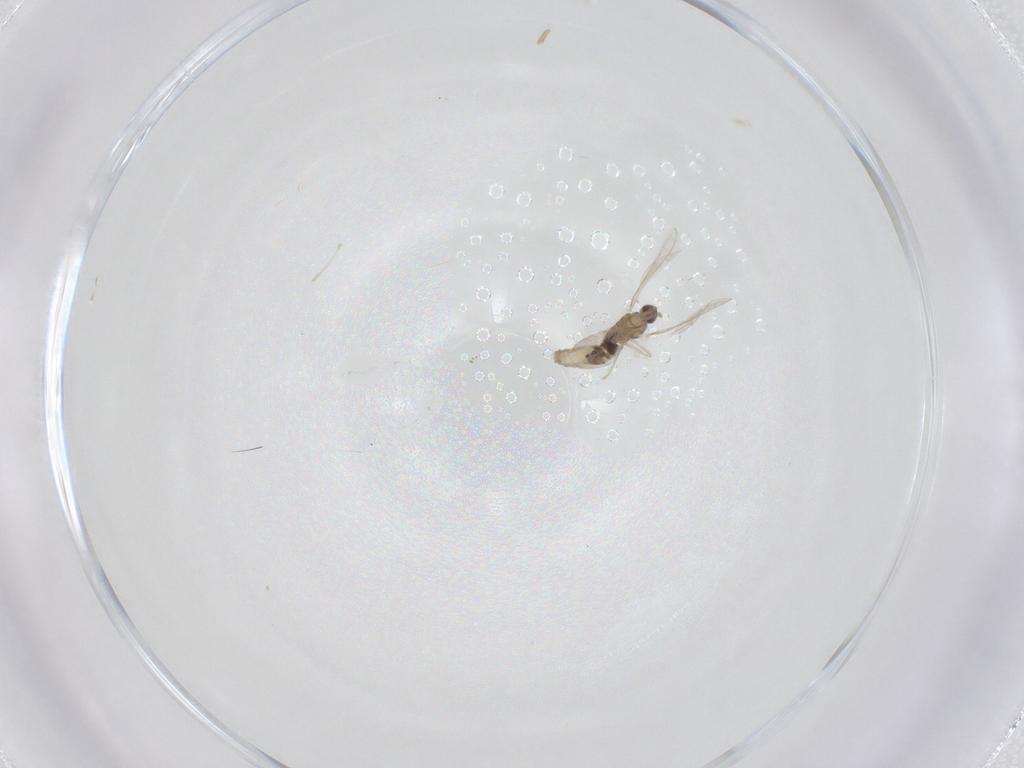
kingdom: Animalia
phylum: Arthropoda
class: Insecta
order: Diptera
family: Cecidomyiidae
